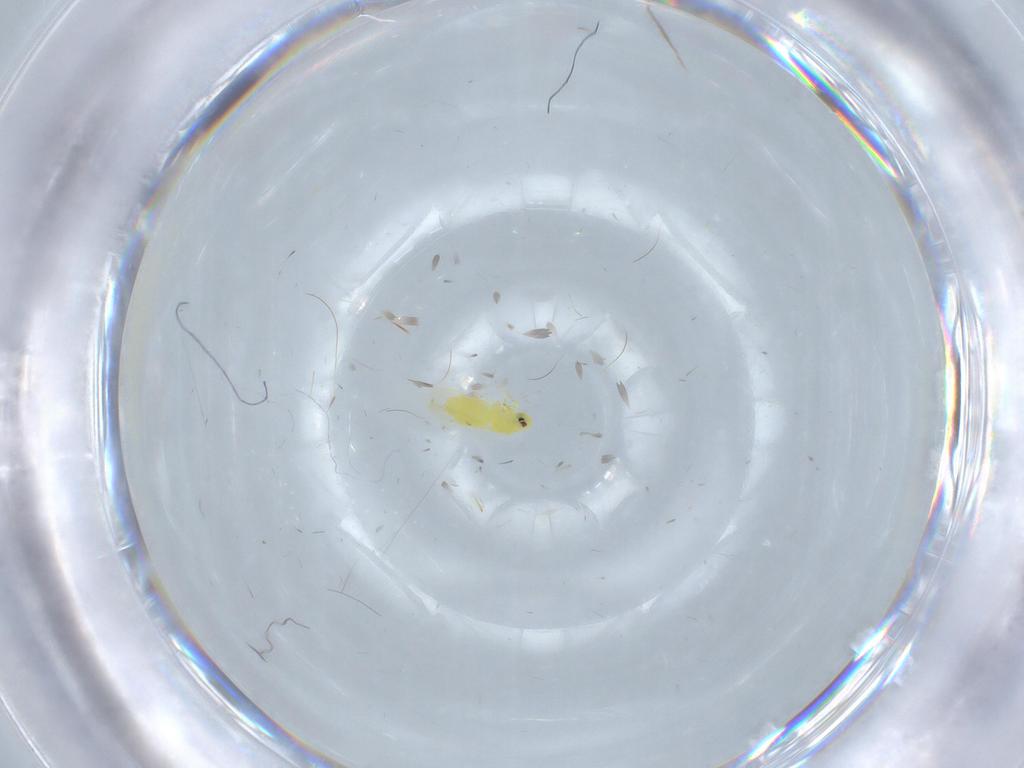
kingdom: Animalia
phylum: Arthropoda
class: Insecta
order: Hemiptera
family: Aleyrodidae
